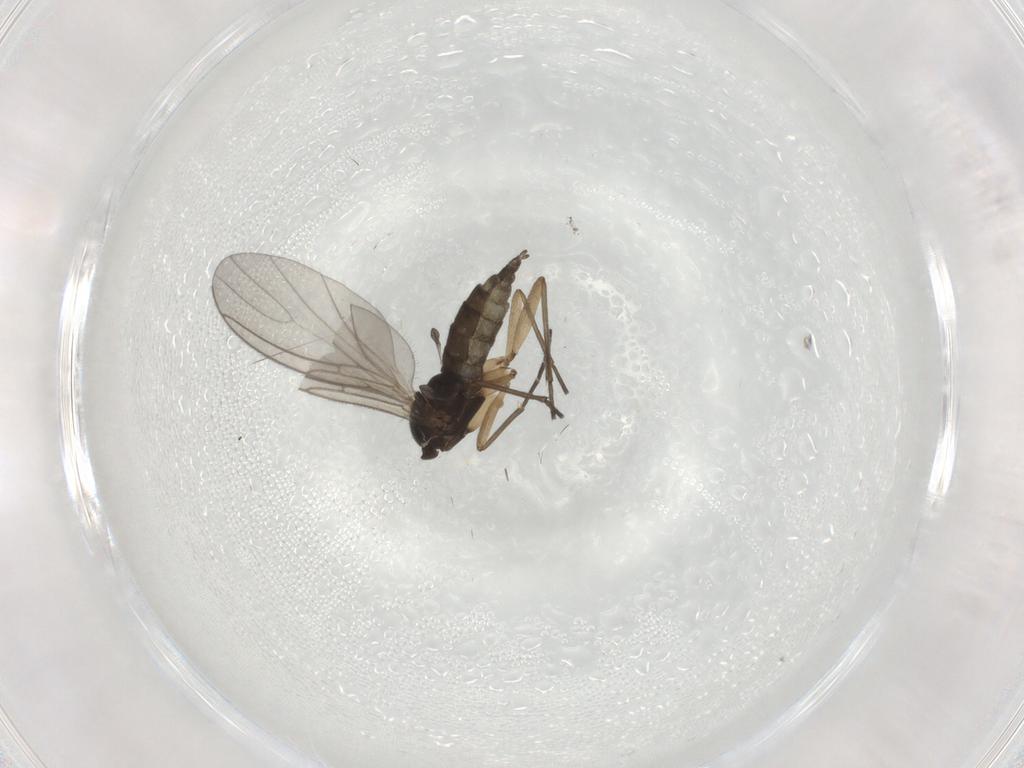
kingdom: Animalia
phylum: Arthropoda
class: Insecta
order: Diptera
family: Sciaridae
